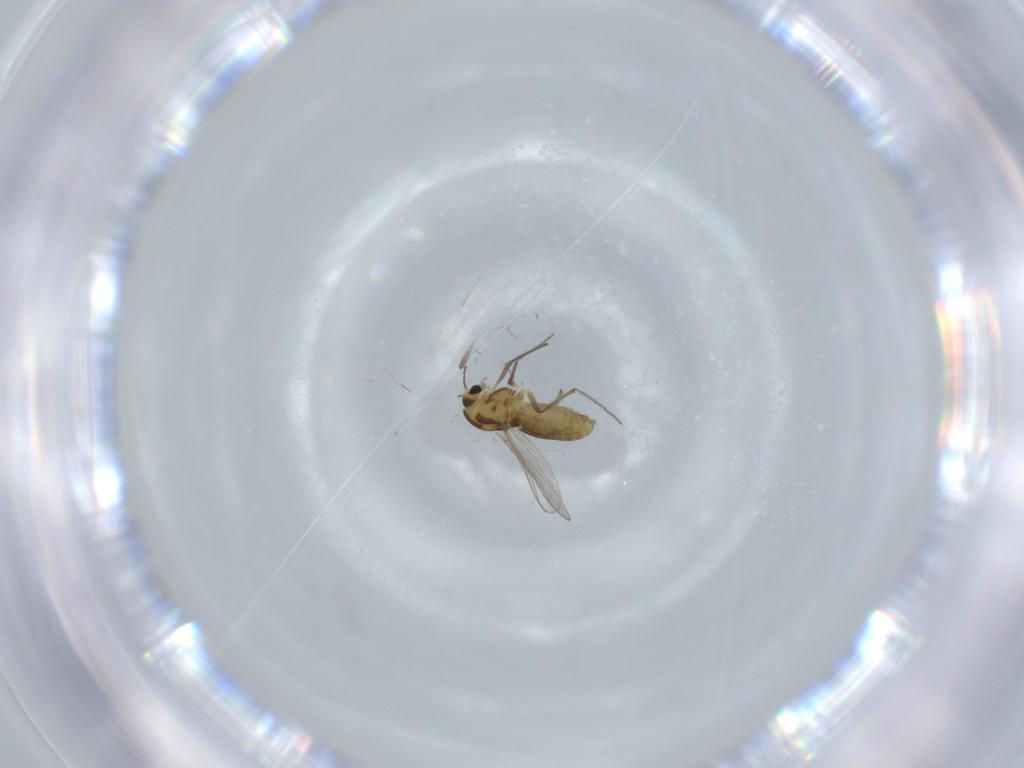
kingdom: Animalia
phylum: Arthropoda
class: Insecta
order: Diptera
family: Chironomidae
